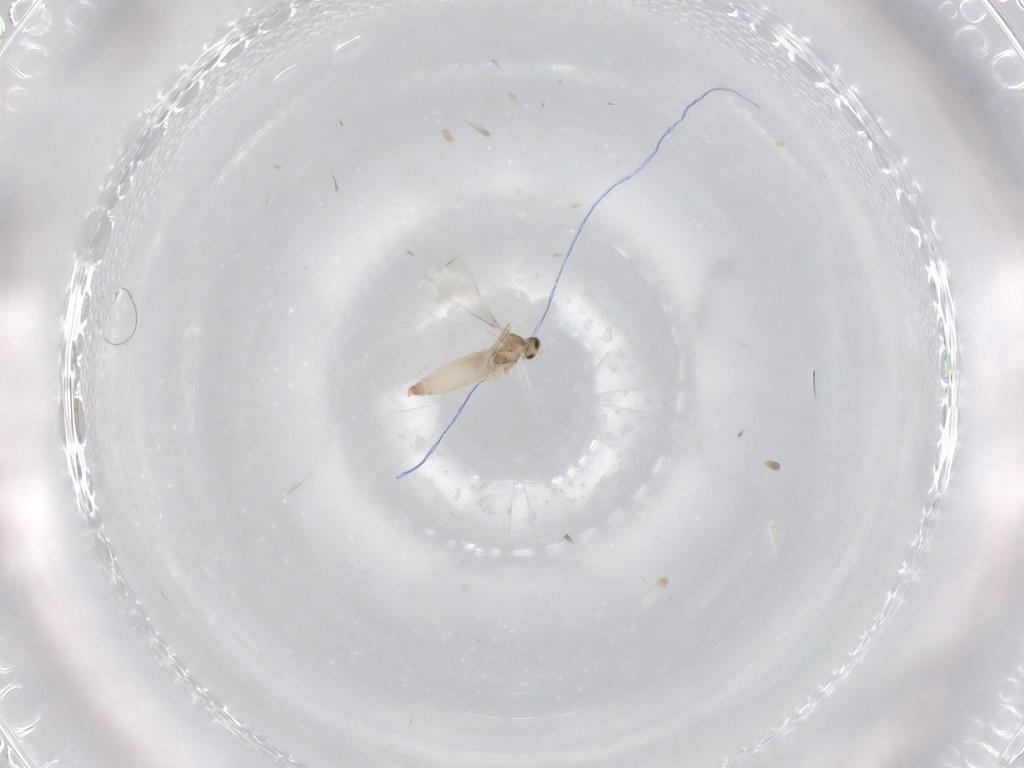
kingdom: Animalia
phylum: Arthropoda
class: Insecta
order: Diptera
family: Cecidomyiidae
